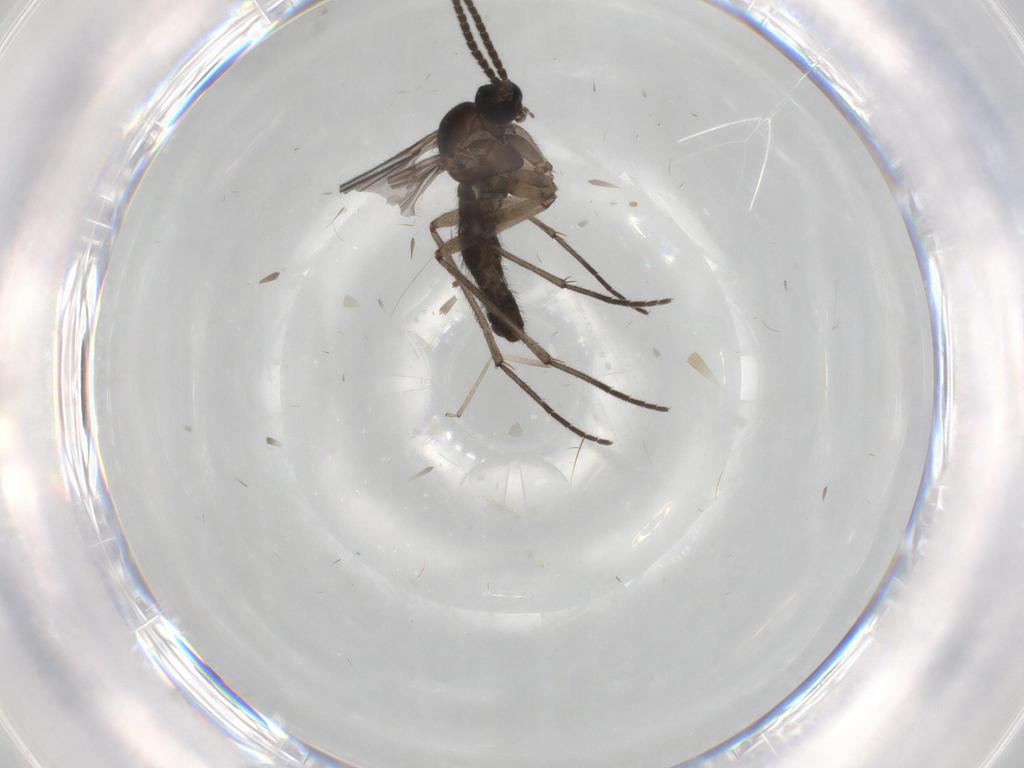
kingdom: Animalia
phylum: Arthropoda
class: Insecta
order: Diptera
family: Sciaridae
